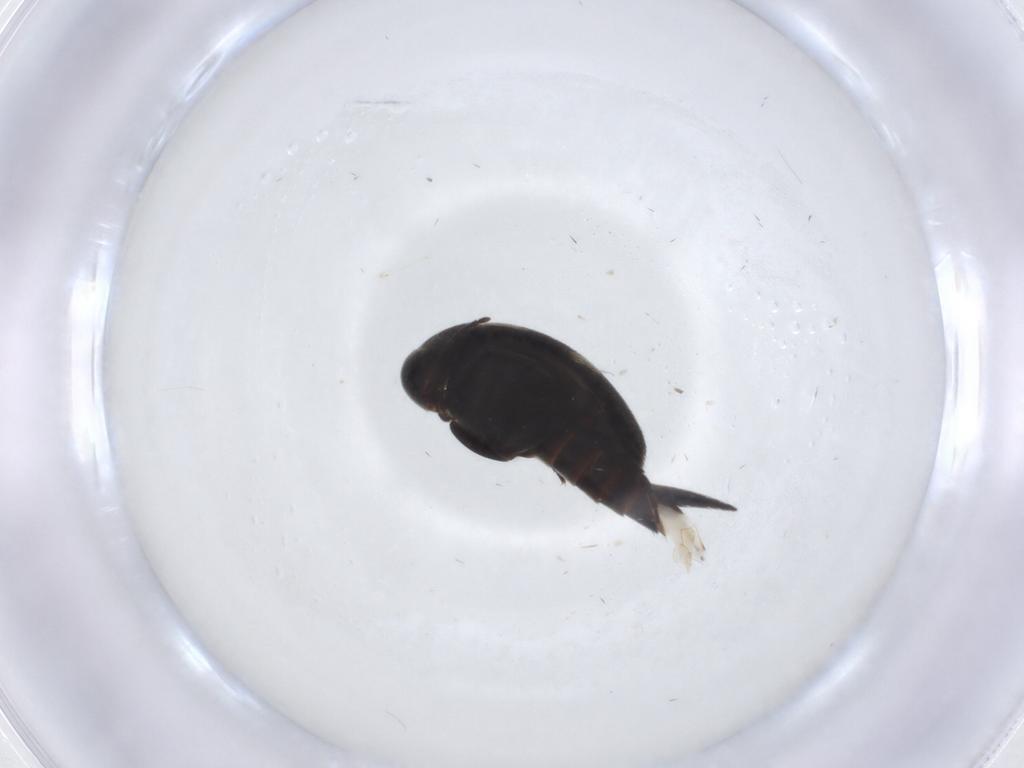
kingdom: Animalia
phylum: Arthropoda
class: Insecta
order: Coleoptera
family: Mordellidae
